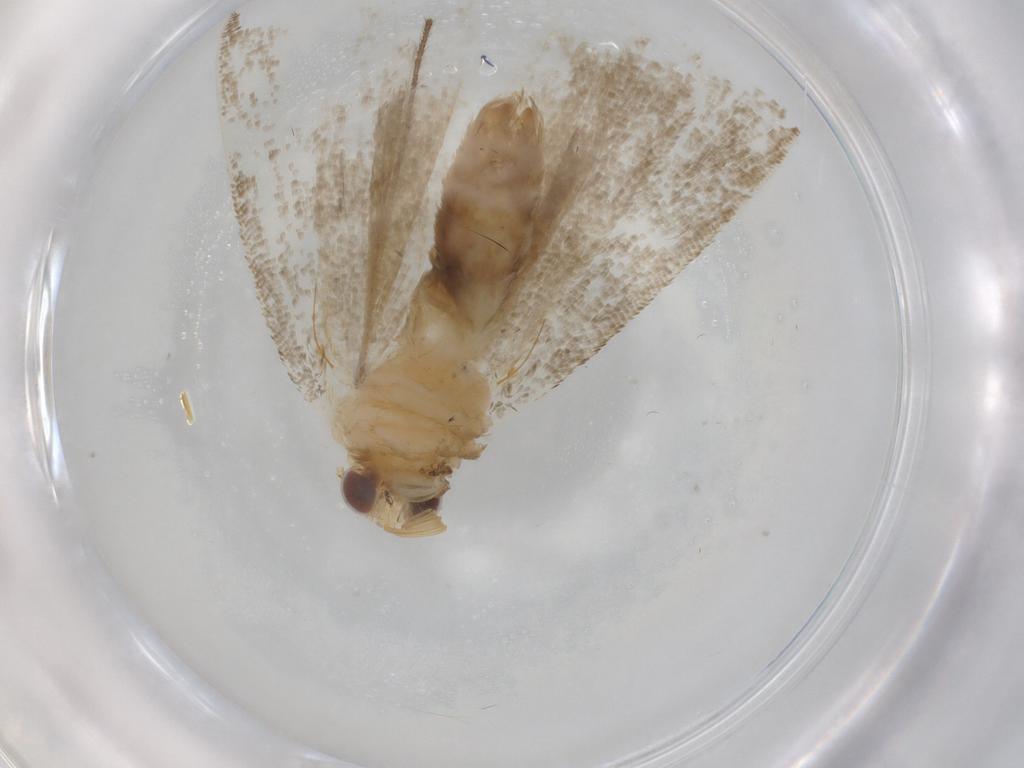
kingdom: Animalia
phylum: Arthropoda
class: Insecta
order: Lepidoptera
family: Erebidae
